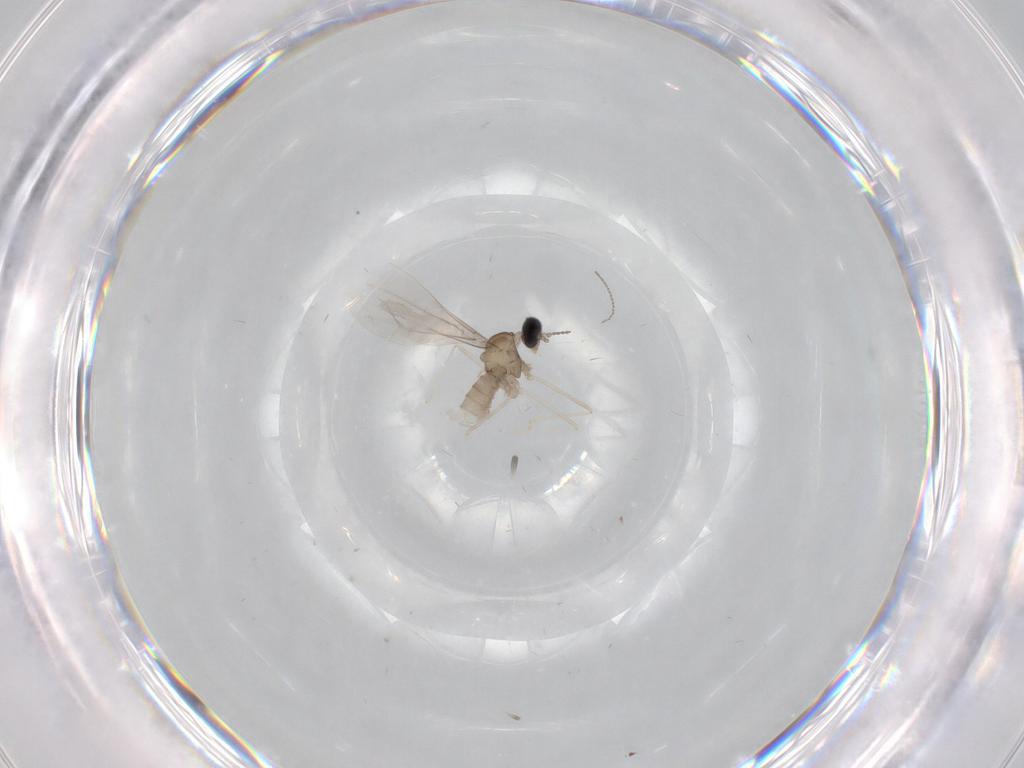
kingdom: Animalia
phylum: Arthropoda
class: Insecta
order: Diptera
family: Cecidomyiidae
